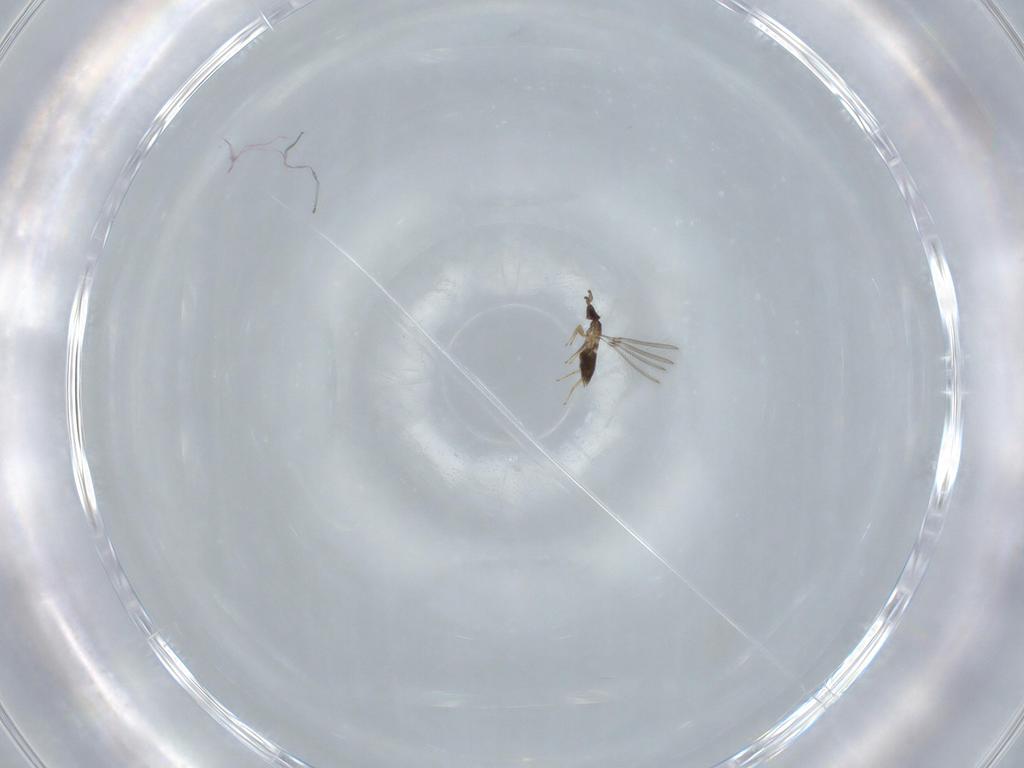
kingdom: Animalia
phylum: Arthropoda
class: Insecta
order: Hymenoptera
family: Mymaridae
